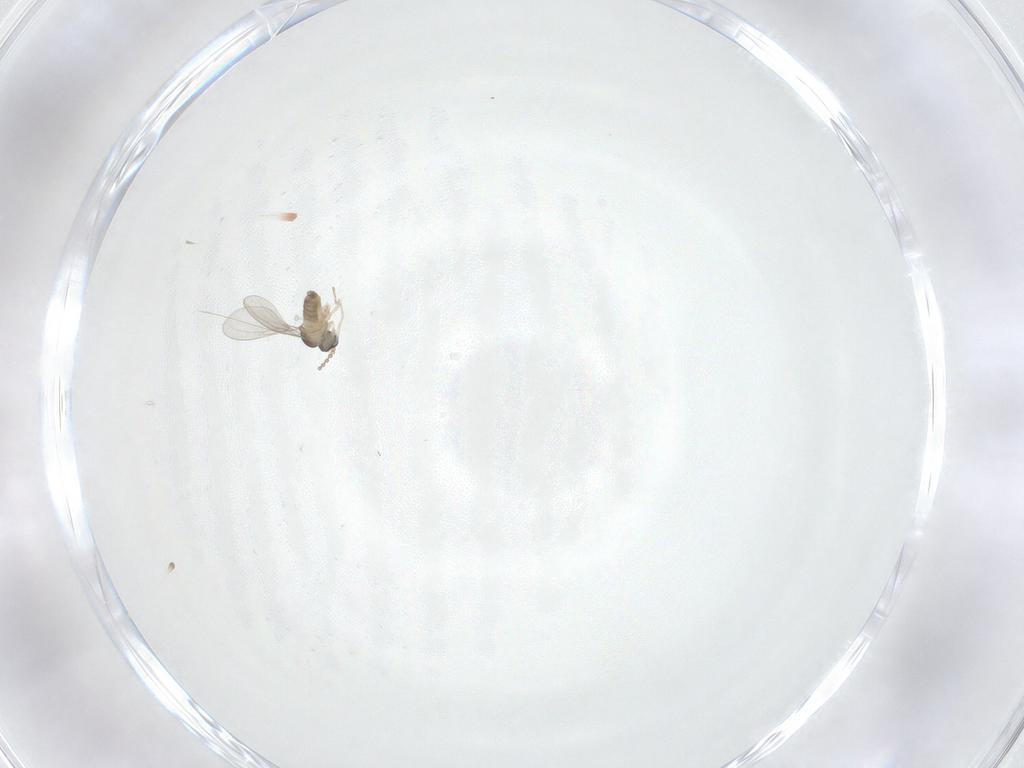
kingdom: Animalia
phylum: Arthropoda
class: Insecta
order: Diptera
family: Cecidomyiidae
